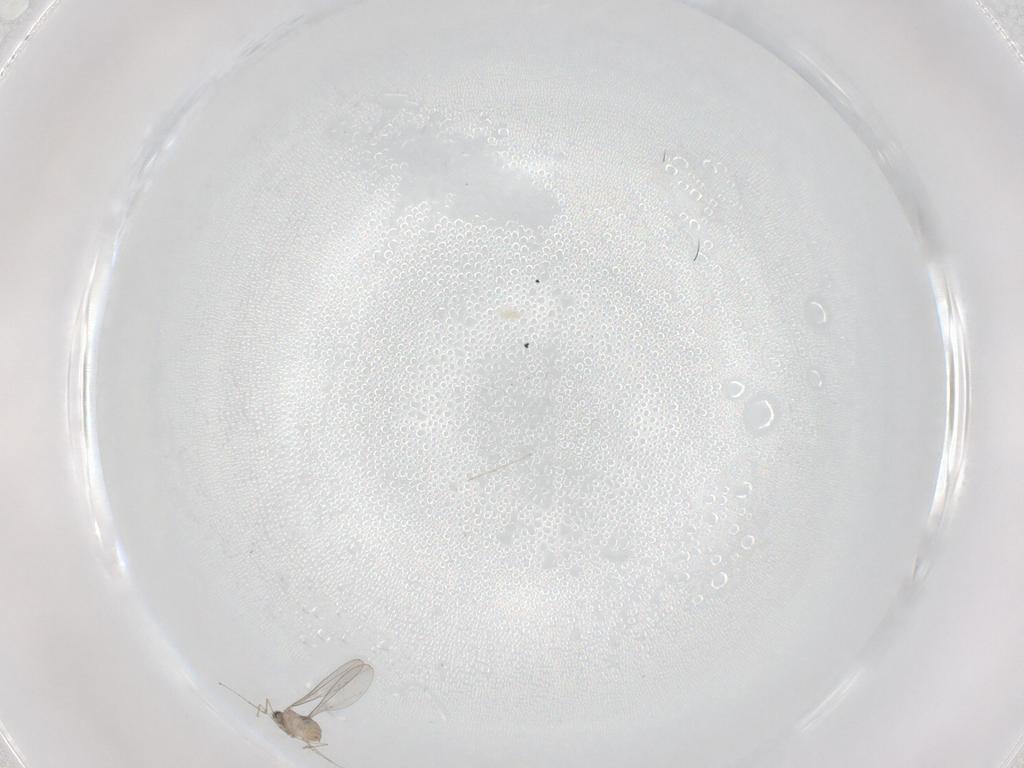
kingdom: Animalia
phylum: Arthropoda
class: Insecta
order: Diptera
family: Cecidomyiidae
